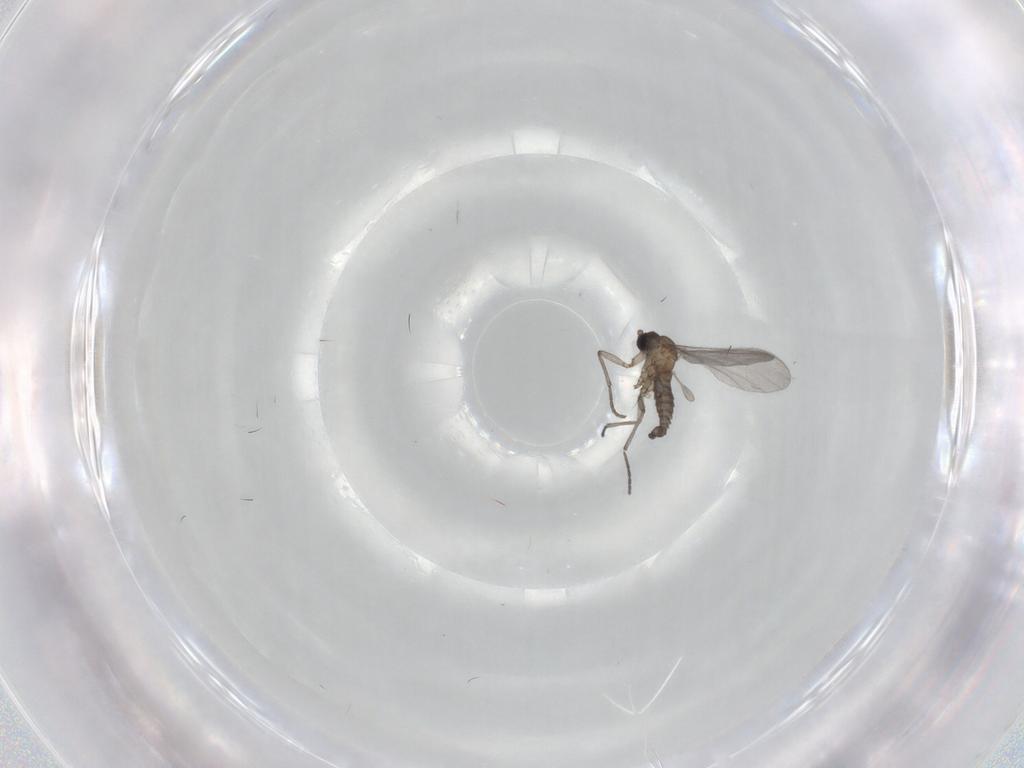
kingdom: Animalia
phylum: Arthropoda
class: Insecta
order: Diptera
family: Sciaridae
